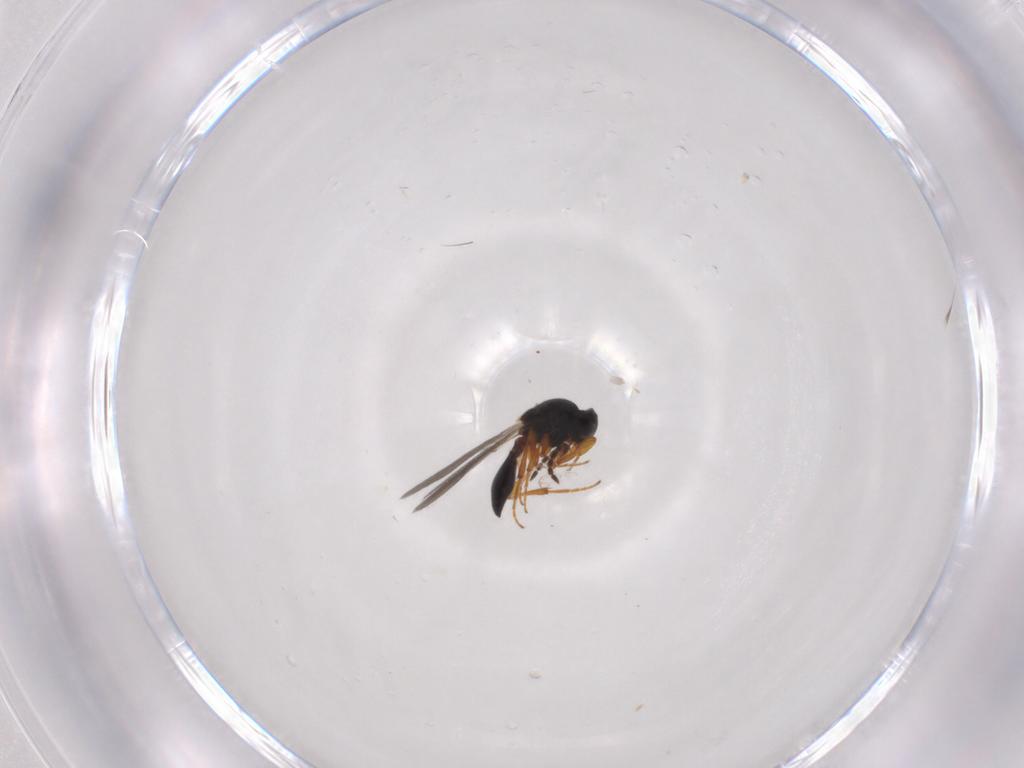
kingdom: Animalia
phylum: Arthropoda
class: Insecta
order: Hymenoptera
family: Platygastridae
